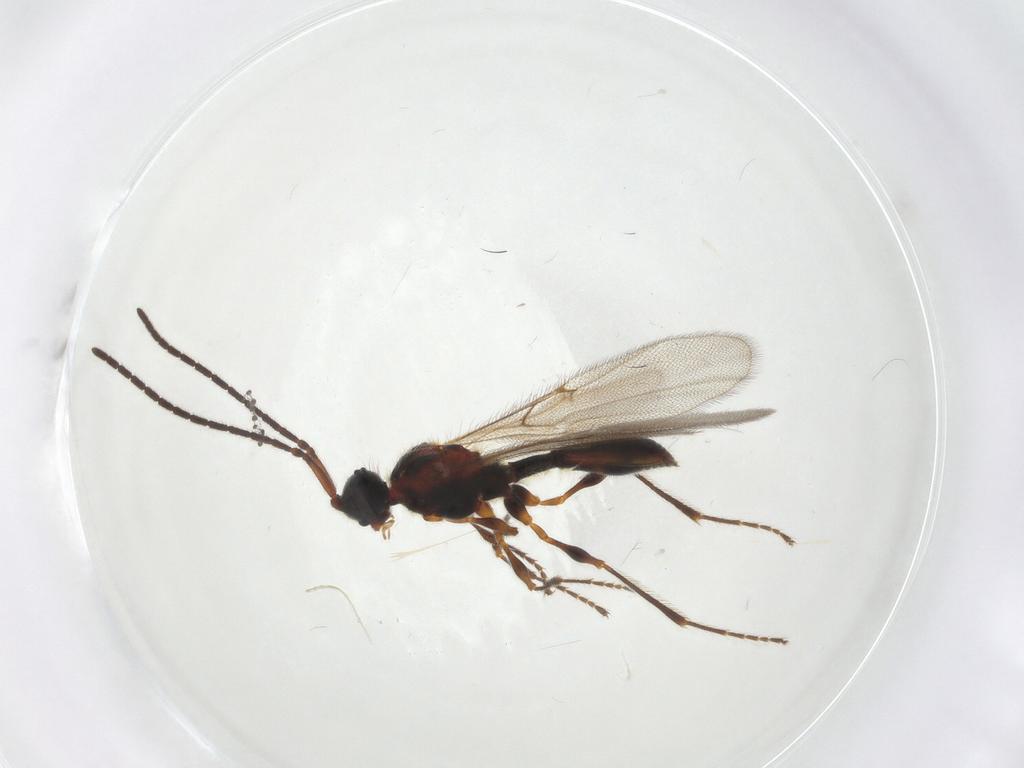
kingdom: Animalia
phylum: Arthropoda
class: Insecta
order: Hymenoptera
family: Diapriidae
